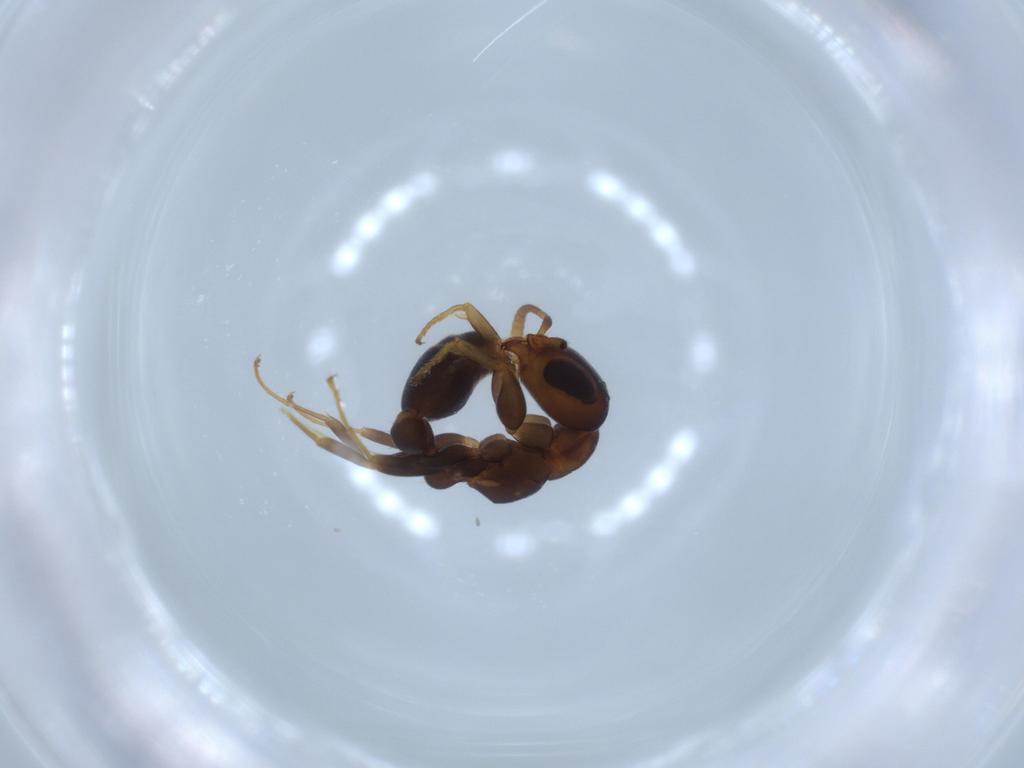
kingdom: Animalia
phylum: Arthropoda
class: Insecta
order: Hymenoptera
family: Formicidae
